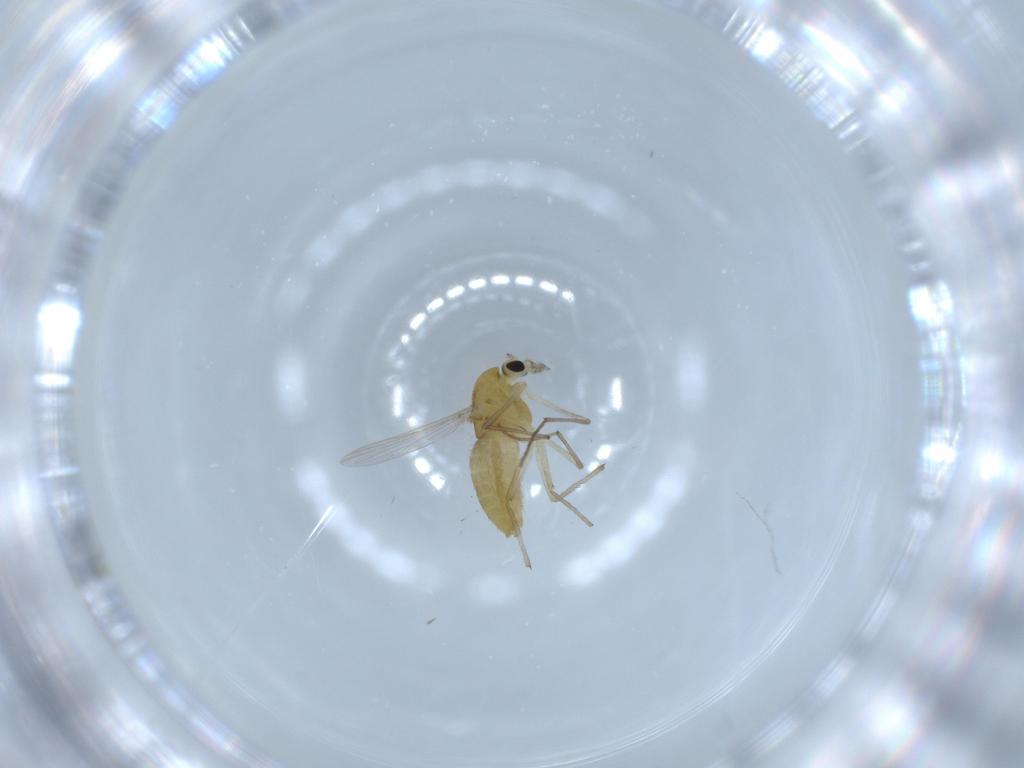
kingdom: Animalia
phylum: Arthropoda
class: Insecta
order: Diptera
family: Chironomidae
